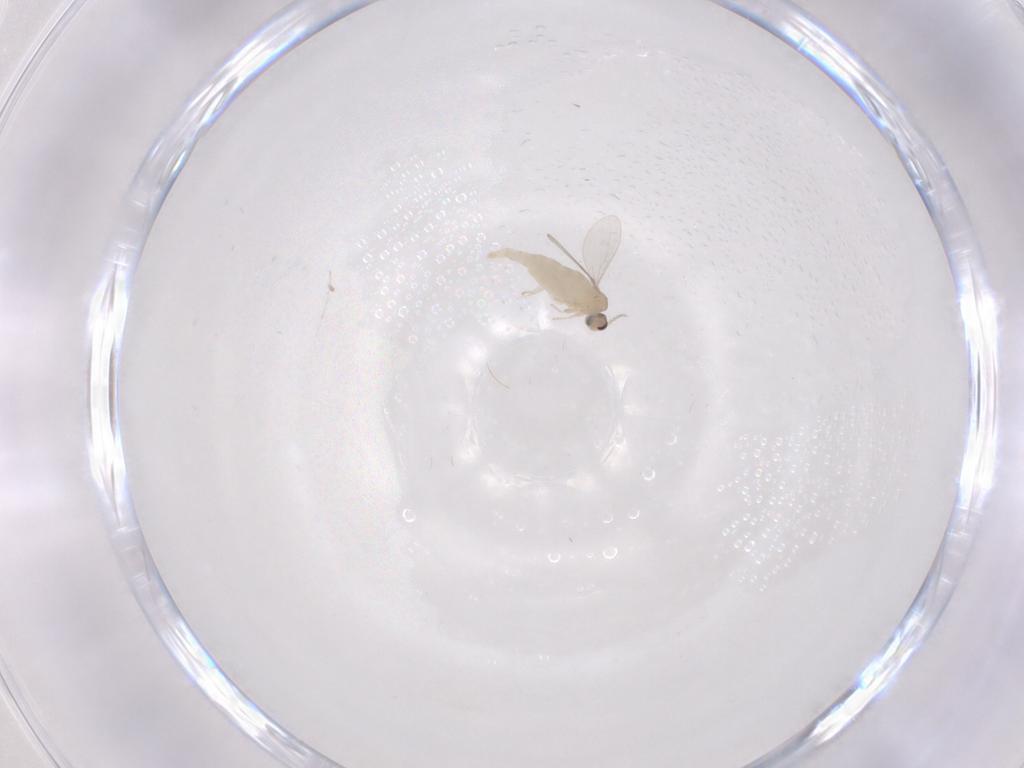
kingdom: Animalia
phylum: Arthropoda
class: Insecta
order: Diptera
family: Cecidomyiidae
